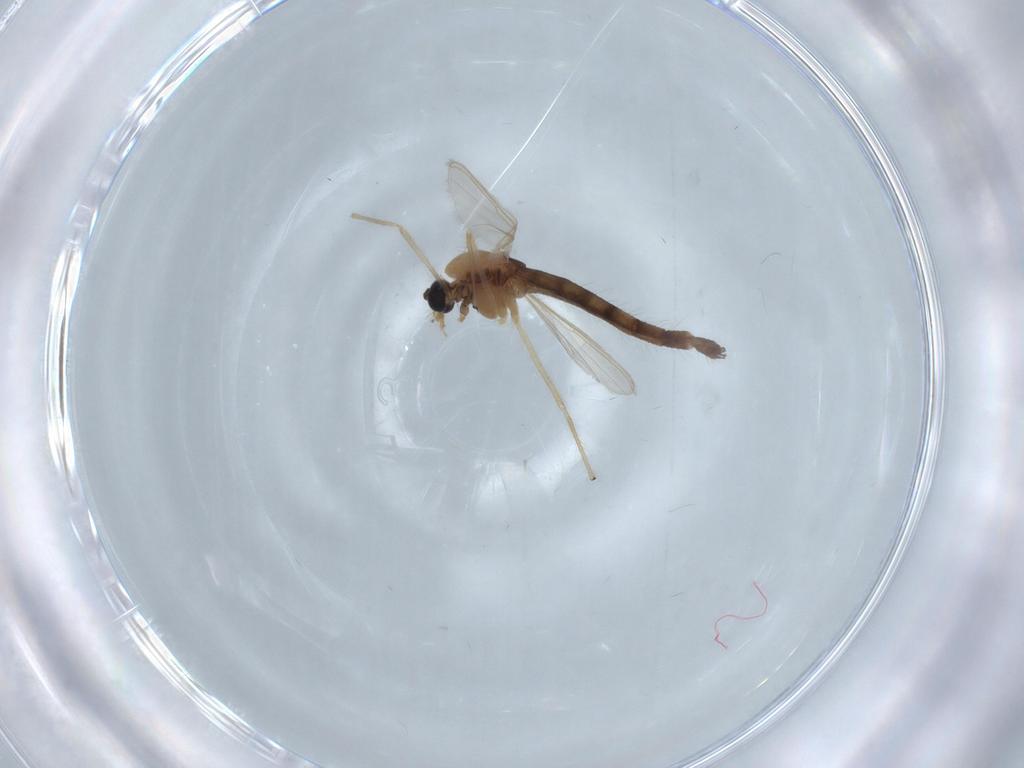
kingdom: Animalia
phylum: Arthropoda
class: Insecta
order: Diptera
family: Chironomidae
